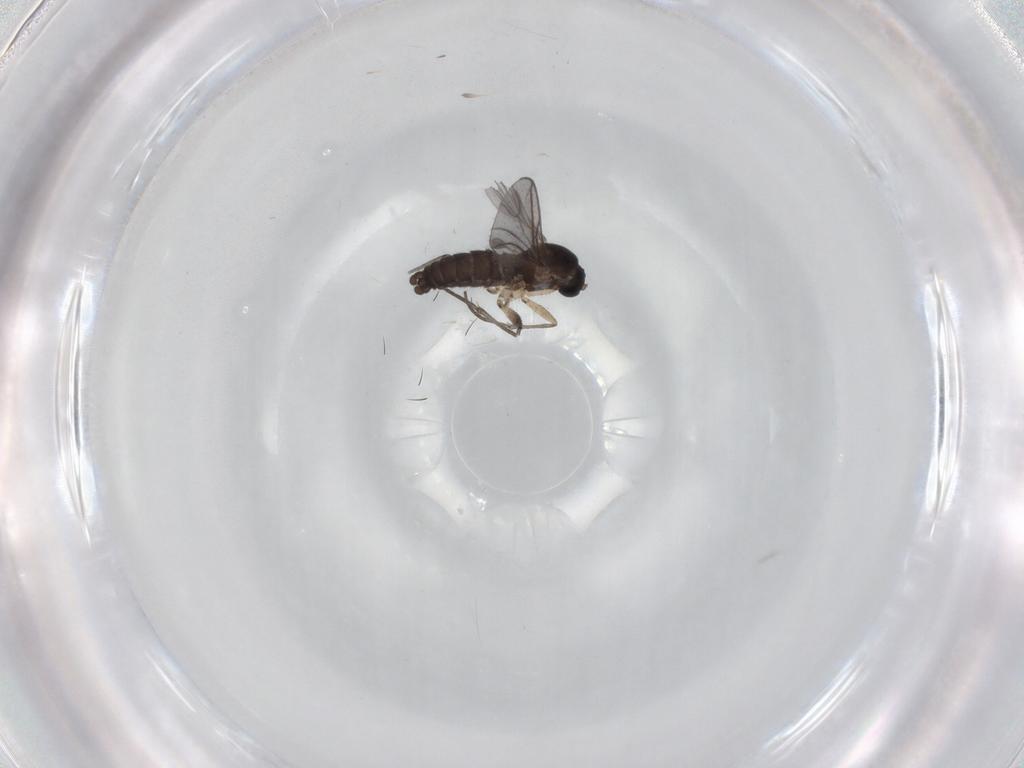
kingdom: Animalia
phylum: Arthropoda
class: Insecta
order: Diptera
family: Sciaridae
